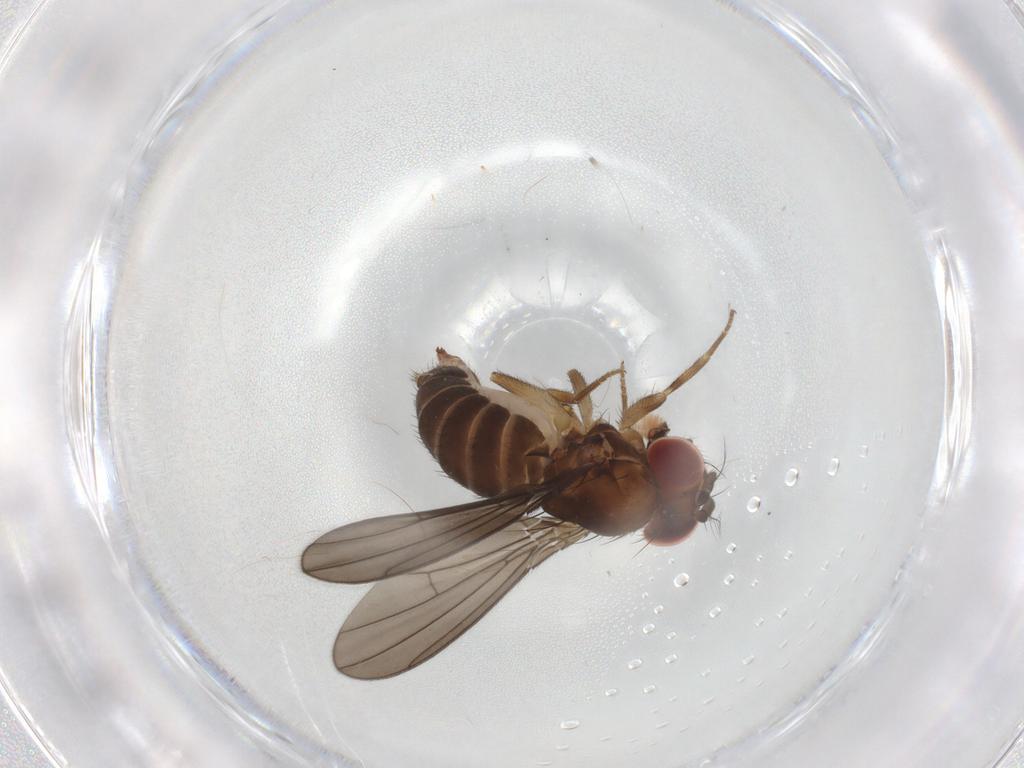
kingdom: Animalia
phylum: Arthropoda
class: Insecta
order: Diptera
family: Drosophilidae
